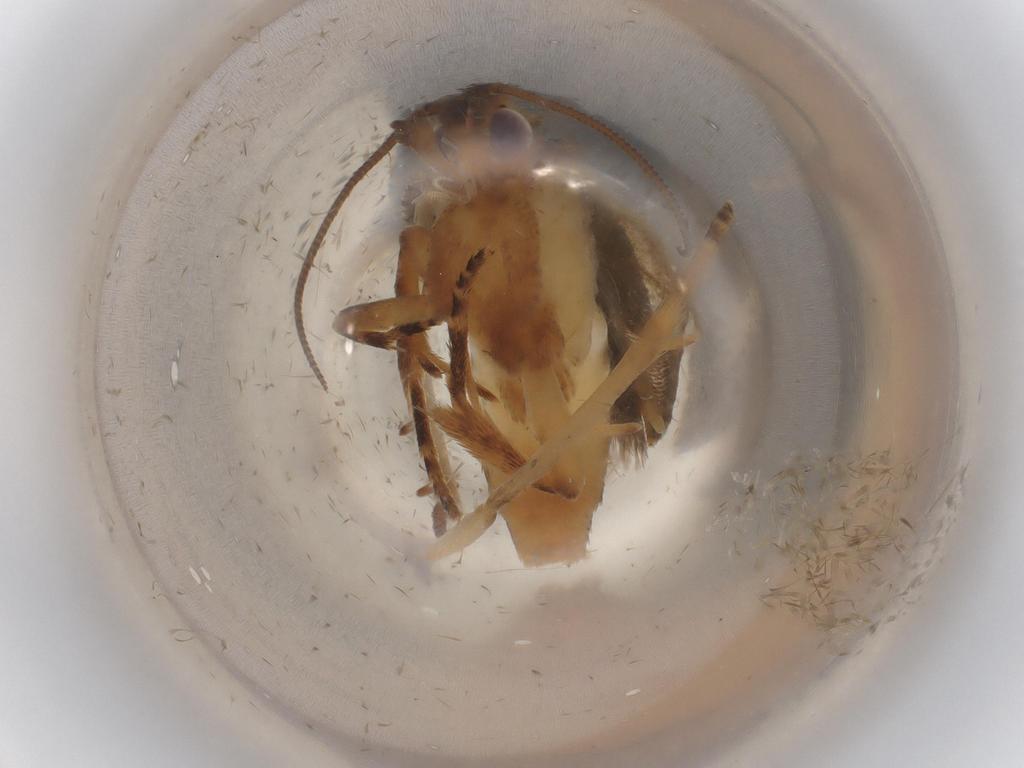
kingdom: Animalia
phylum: Arthropoda
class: Insecta
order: Lepidoptera
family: Tortricidae
